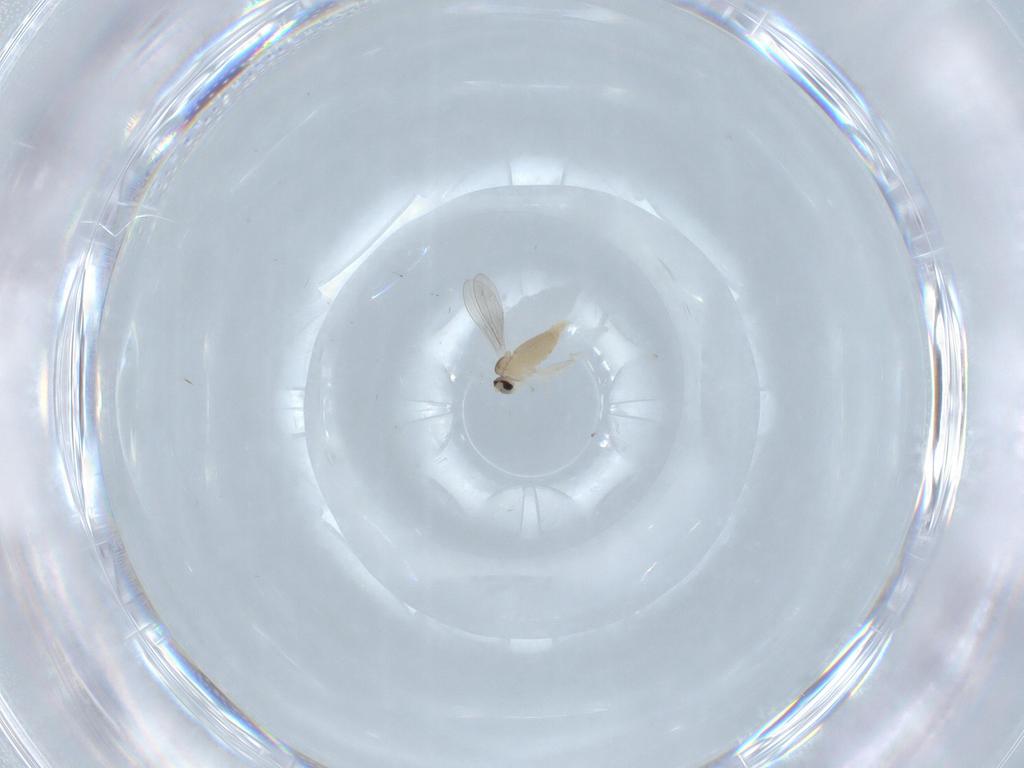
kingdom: Animalia
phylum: Arthropoda
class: Insecta
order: Diptera
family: Cecidomyiidae
